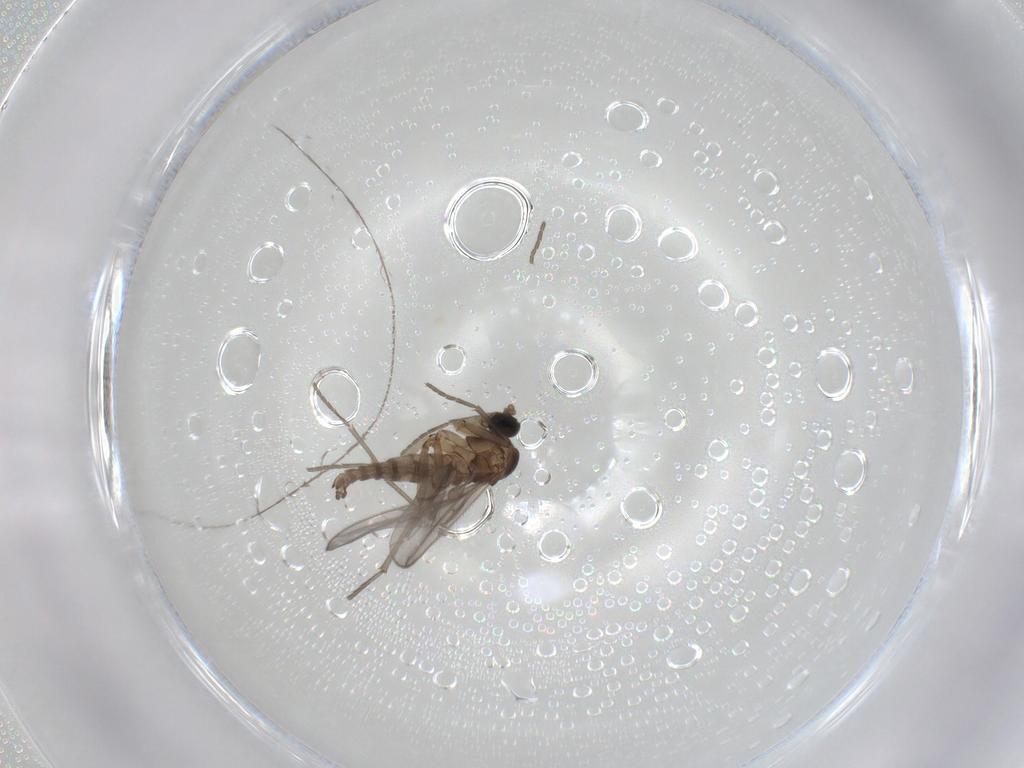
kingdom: Animalia
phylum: Arthropoda
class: Insecta
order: Diptera
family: Sciaridae
